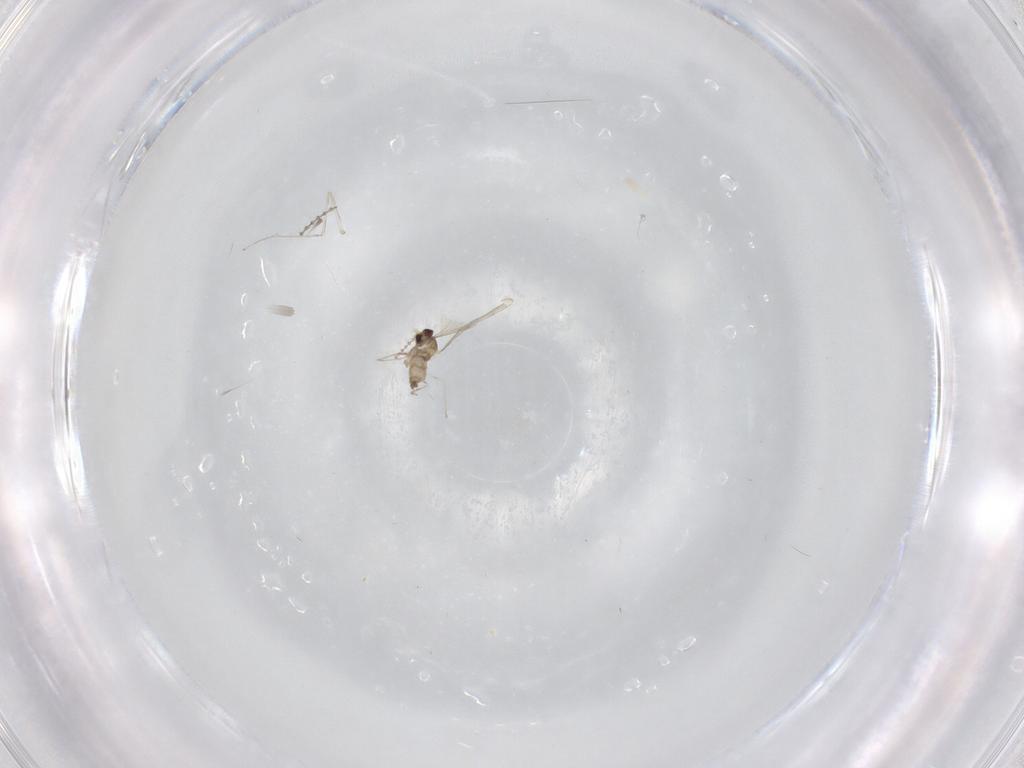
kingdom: Animalia
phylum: Arthropoda
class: Insecta
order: Diptera
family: Cecidomyiidae
